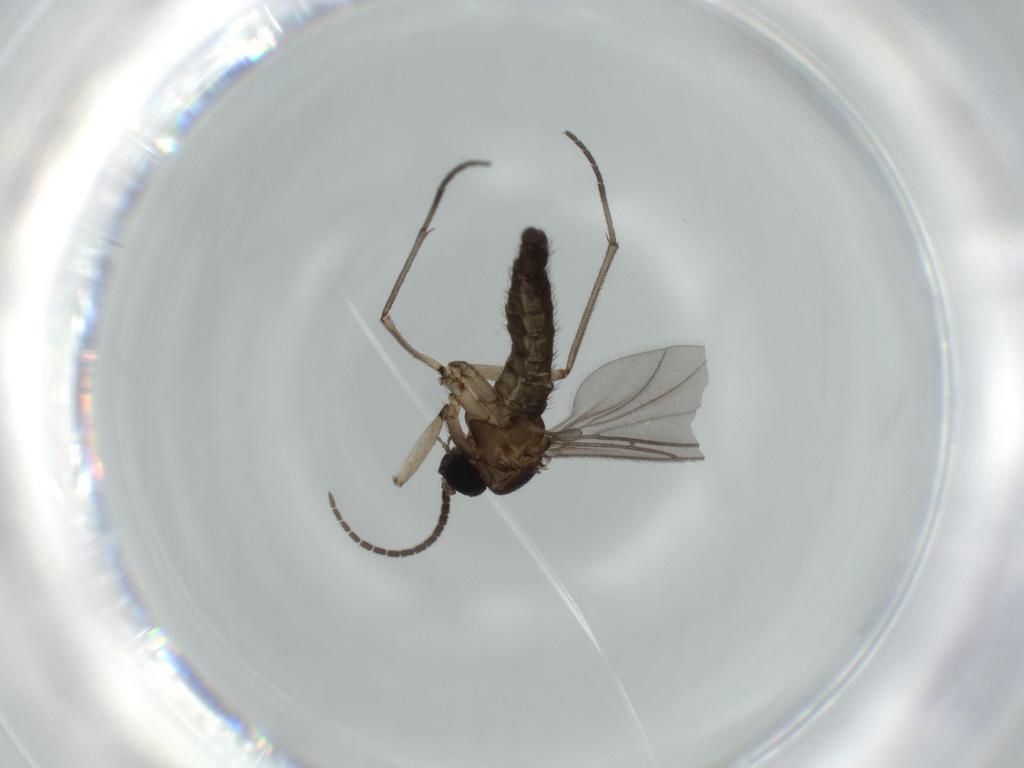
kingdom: Animalia
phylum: Arthropoda
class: Insecta
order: Diptera
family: Sciaridae
